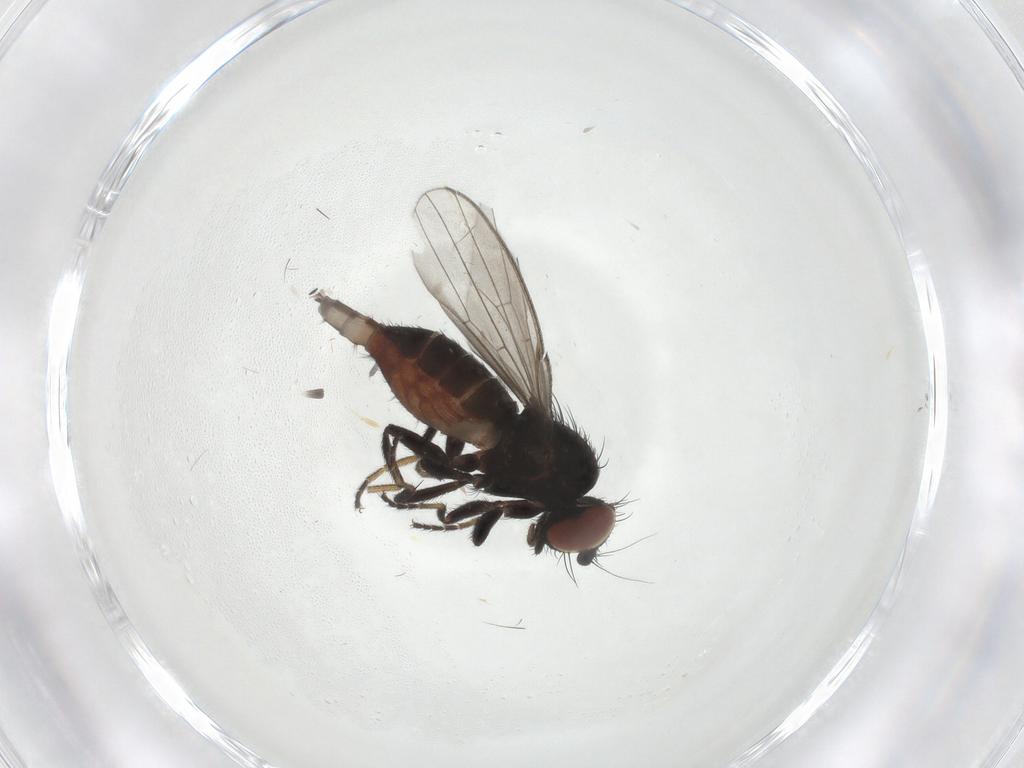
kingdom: Animalia
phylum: Arthropoda
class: Insecta
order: Diptera
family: Milichiidae
